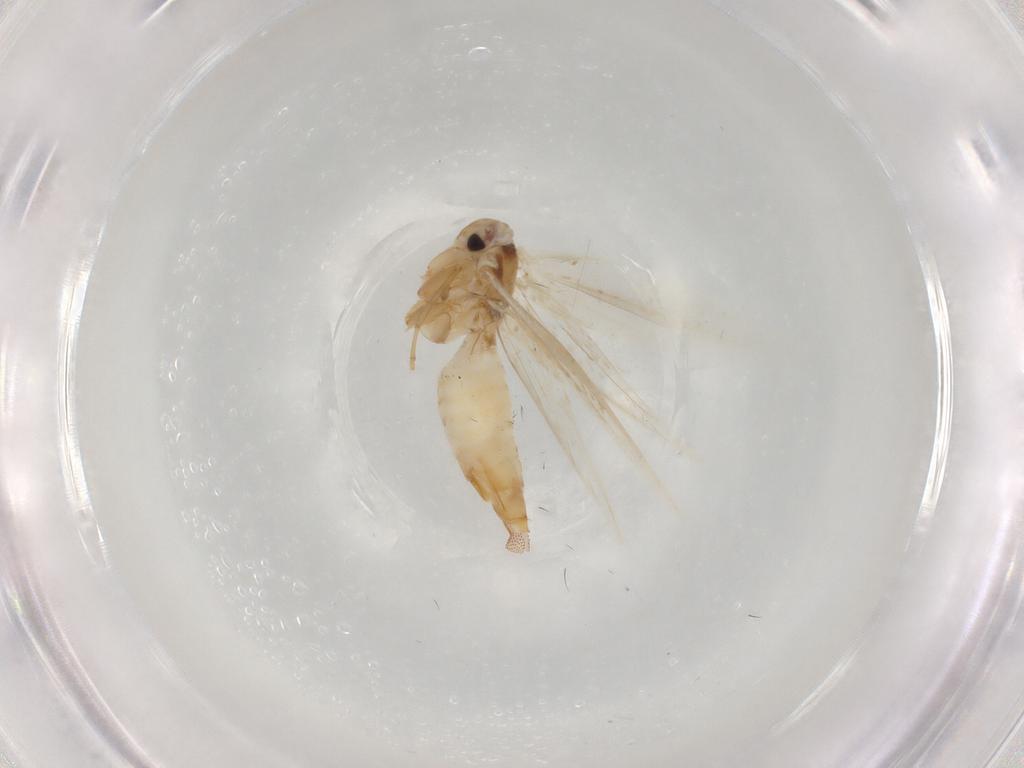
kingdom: Animalia
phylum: Arthropoda
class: Insecta
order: Lepidoptera
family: Bucculatricidae
